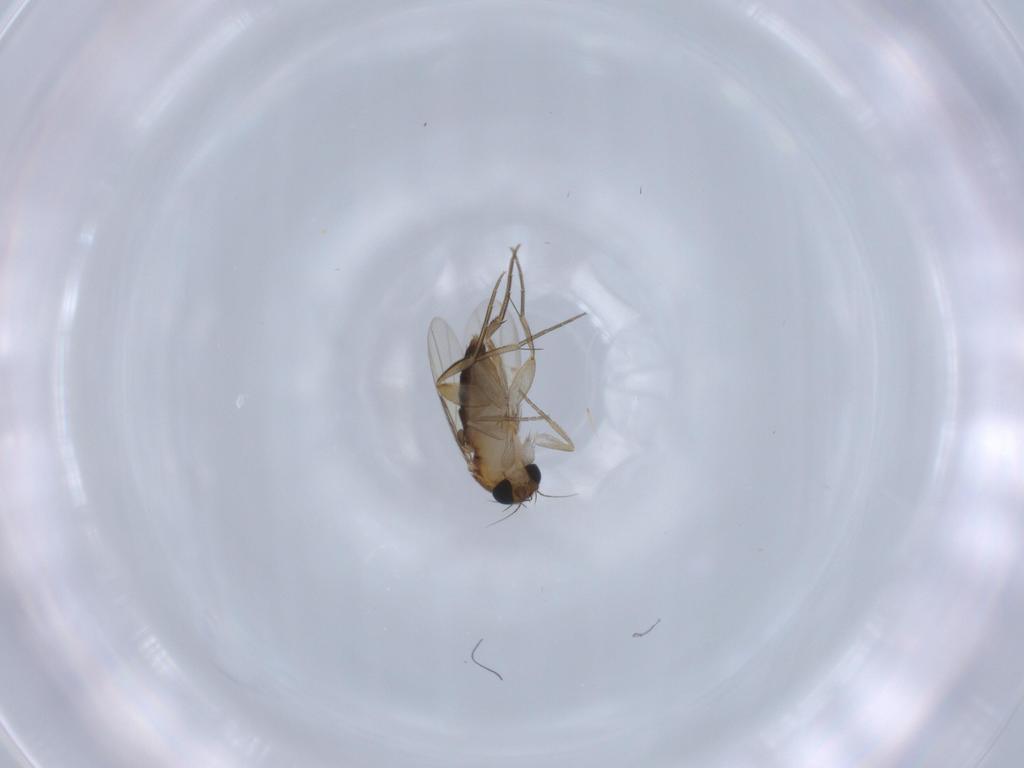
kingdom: Animalia
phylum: Arthropoda
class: Insecta
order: Diptera
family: Phoridae
